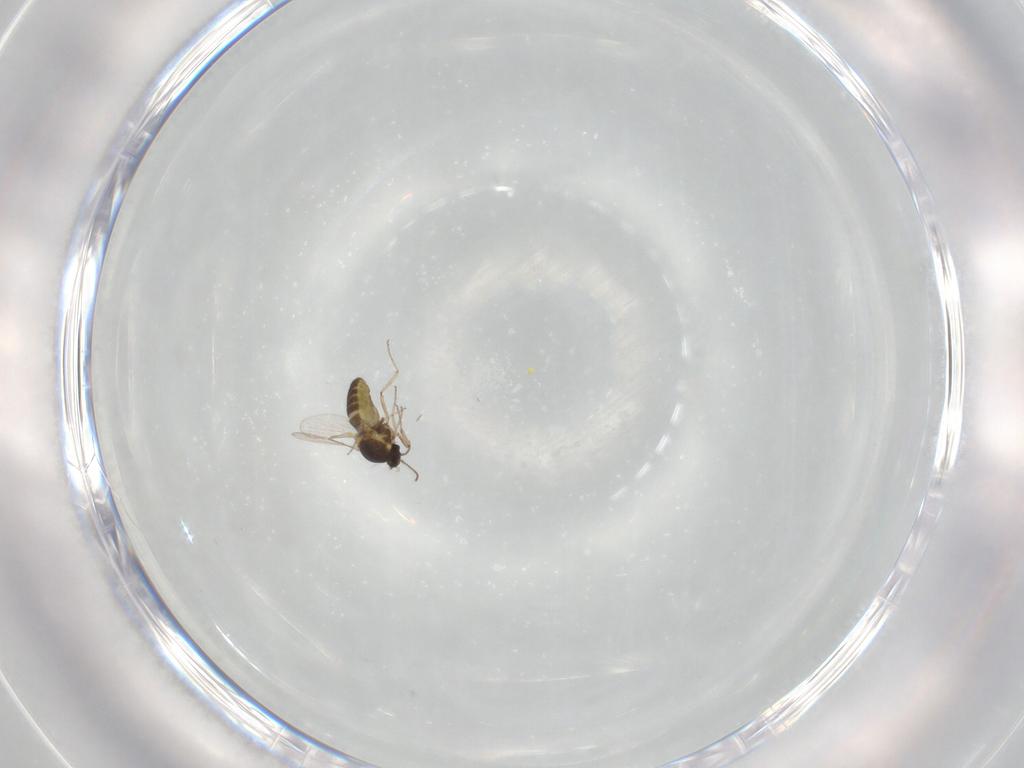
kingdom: Animalia
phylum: Arthropoda
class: Insecta
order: Diptera
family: Ceratopogonidae
